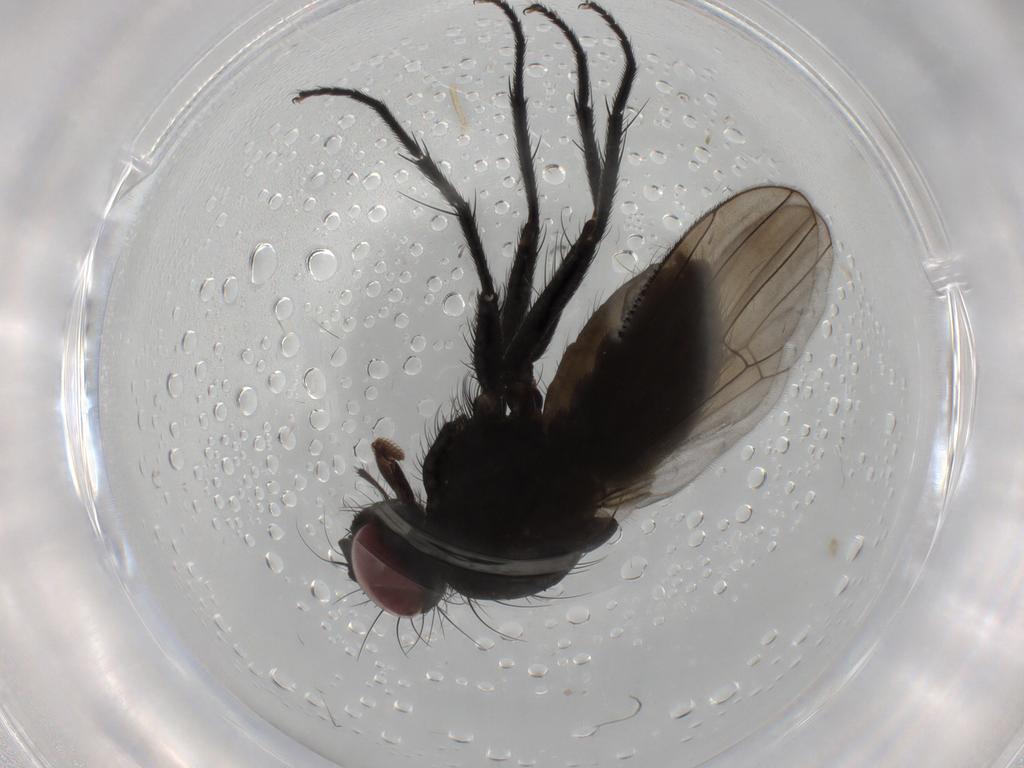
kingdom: Animalia
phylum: Arthropoda
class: Insecta
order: Diptera
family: Muscidae
